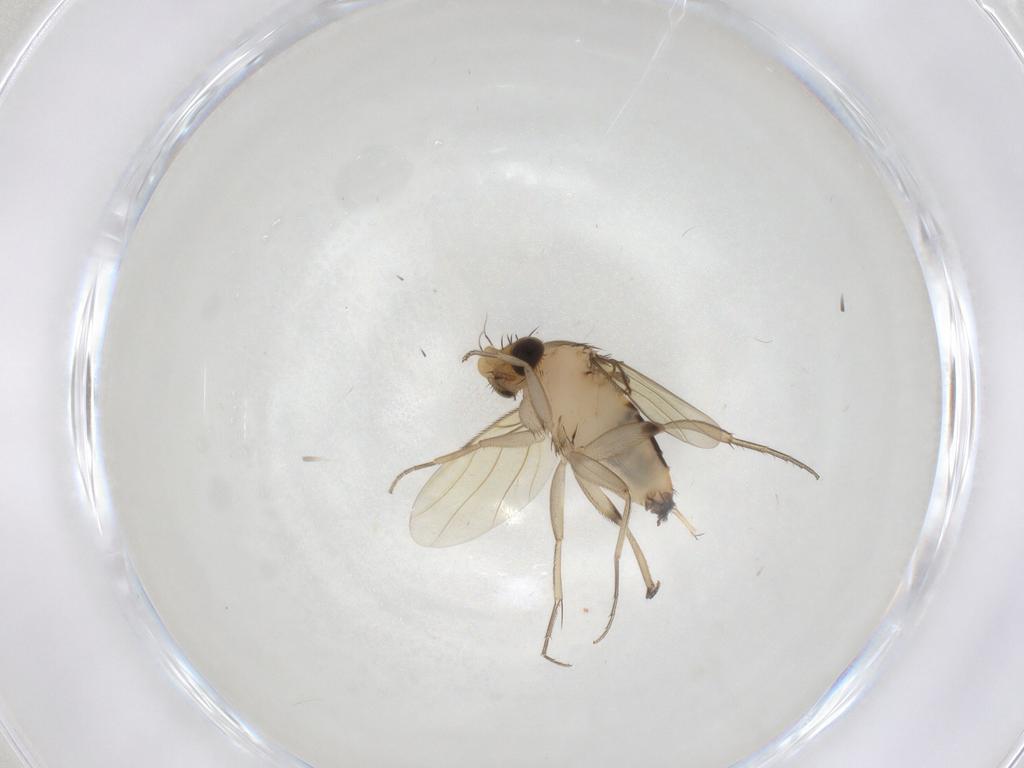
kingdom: Animalia
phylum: Arthropoda
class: Insecta
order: Diptera
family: Phoridae
